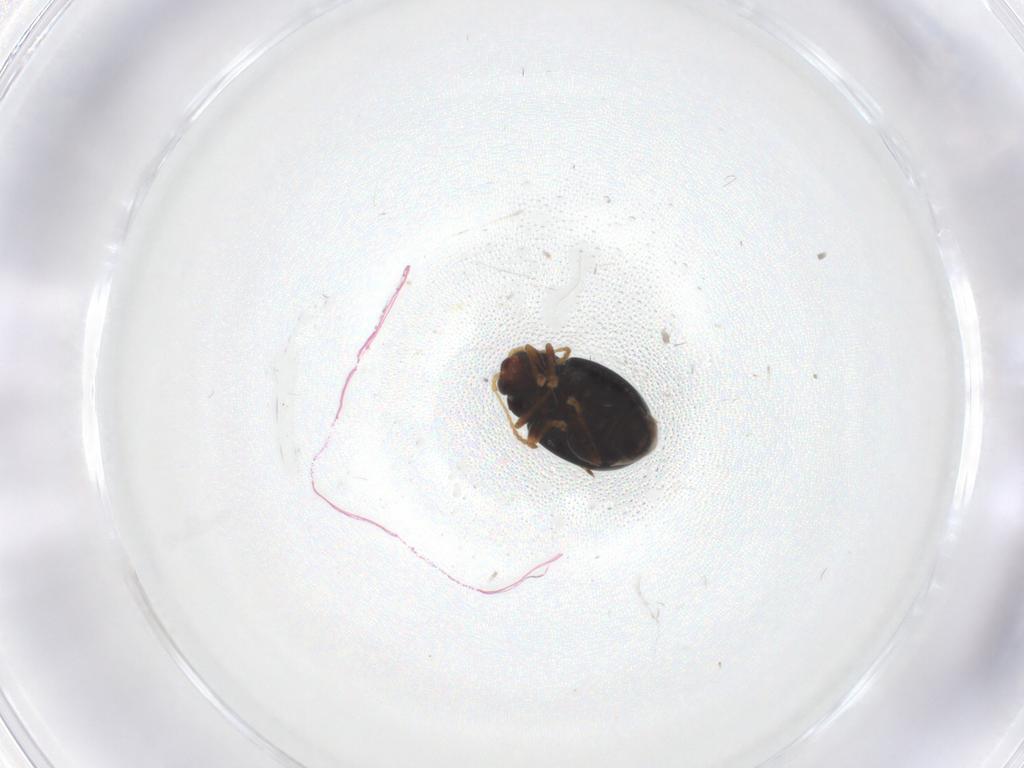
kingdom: Animalia
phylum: Arthropoda
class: Insecta
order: Coleoptera
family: Chrysomelidae
